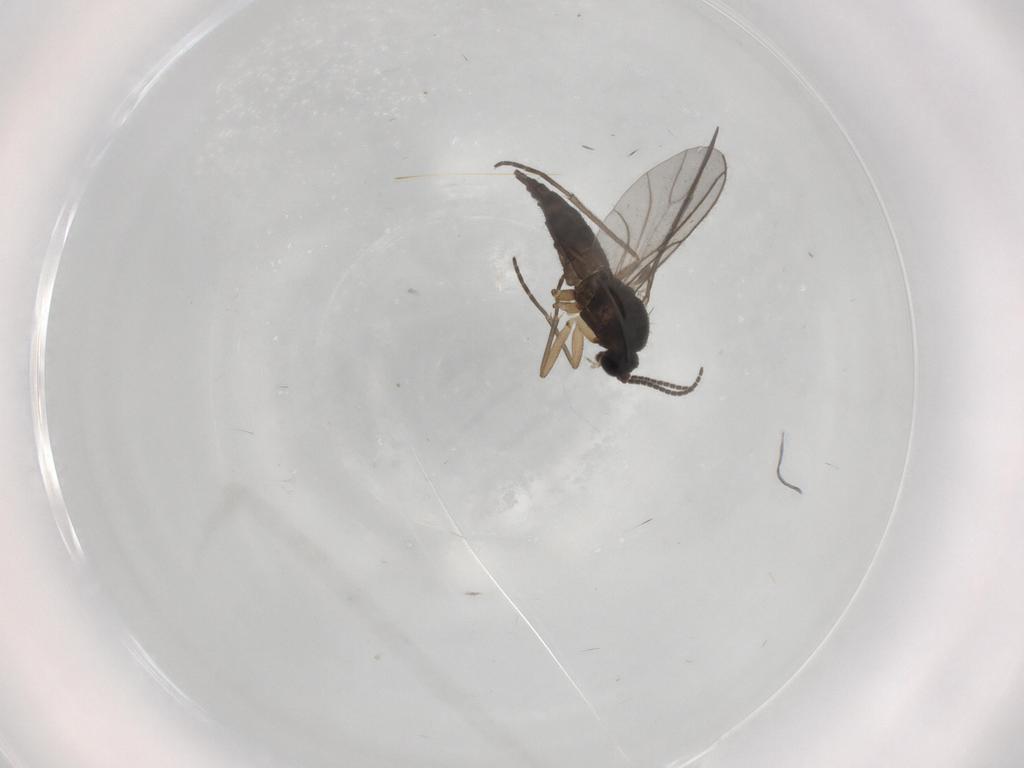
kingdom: Animalia
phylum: Arthropoda
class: Insecta
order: Diptera
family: Sciaridae
